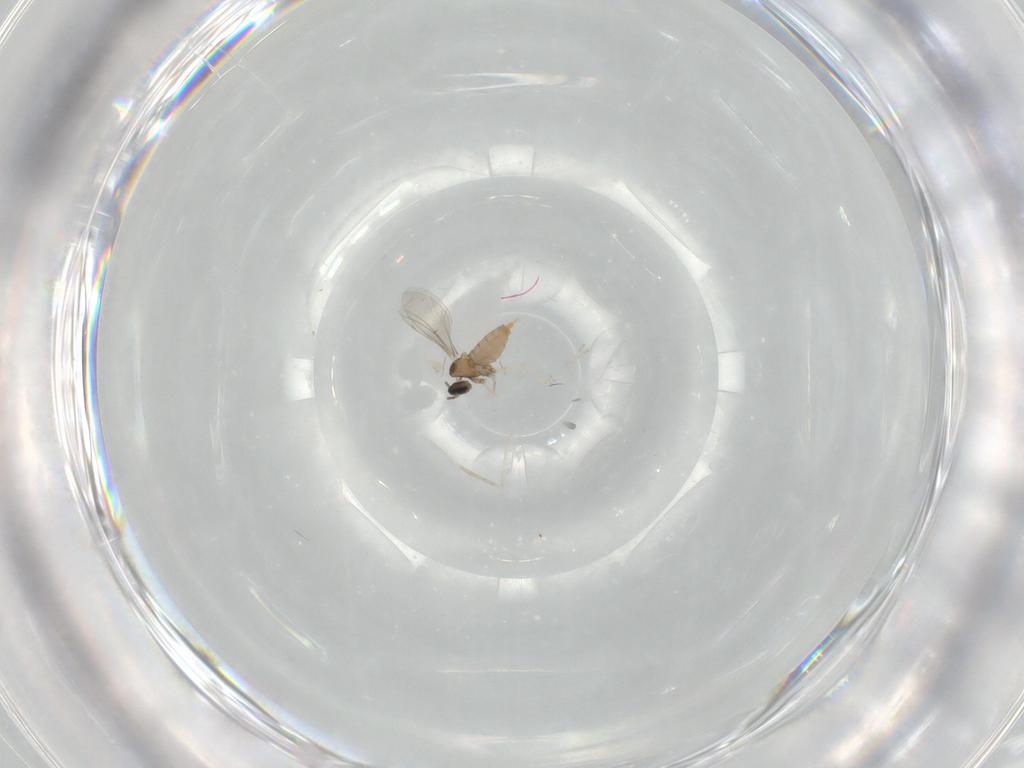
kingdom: Animalia
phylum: Arthropoda
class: Insecta
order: Diptera
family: Cecidomyiidae
